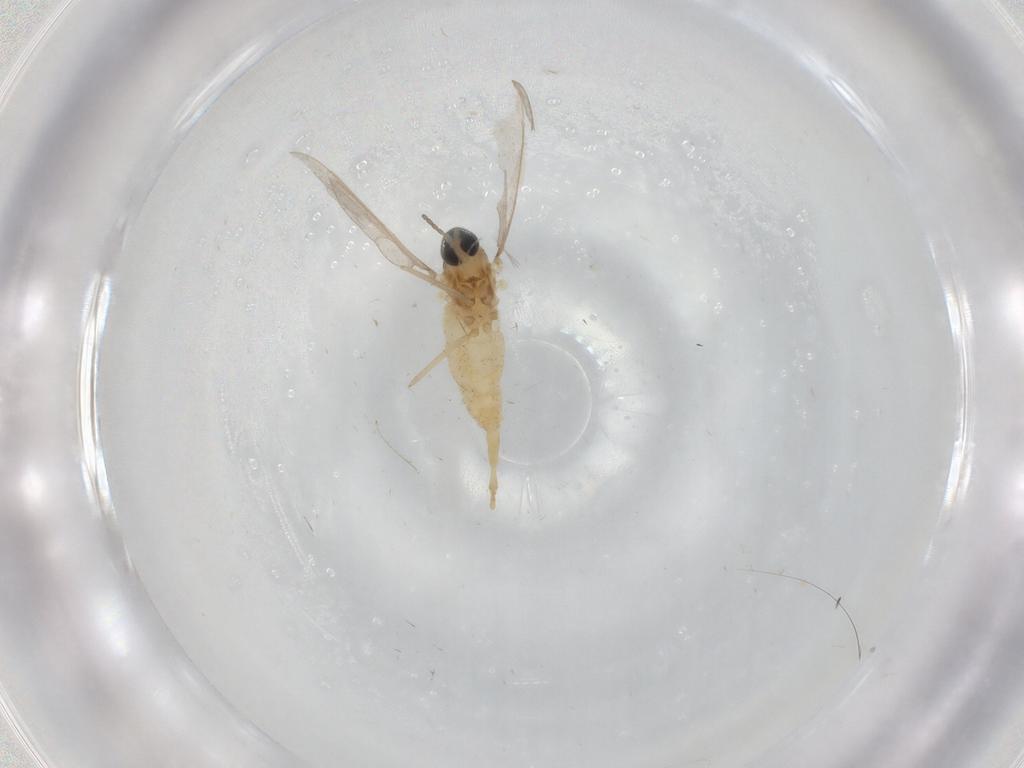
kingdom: Animalia
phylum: Arthropoda
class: Insecta
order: Diptera
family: Cecidomyiidae
